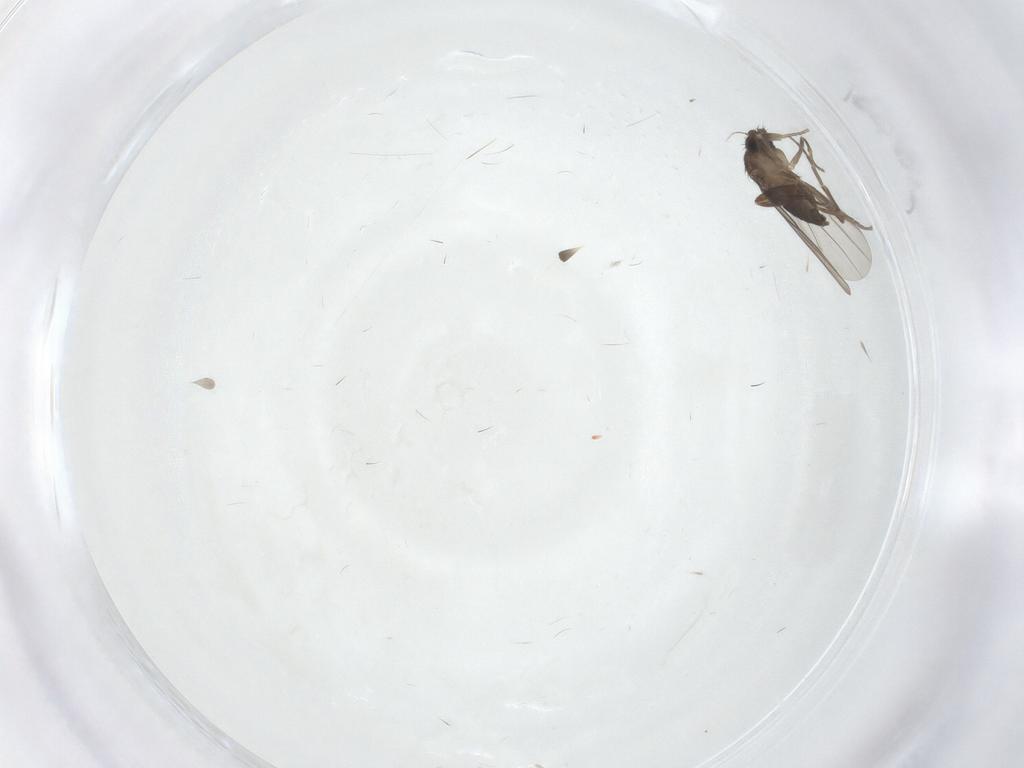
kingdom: Animalia
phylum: Arthropoda
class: Insecta
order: Diptera
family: Phoridae
